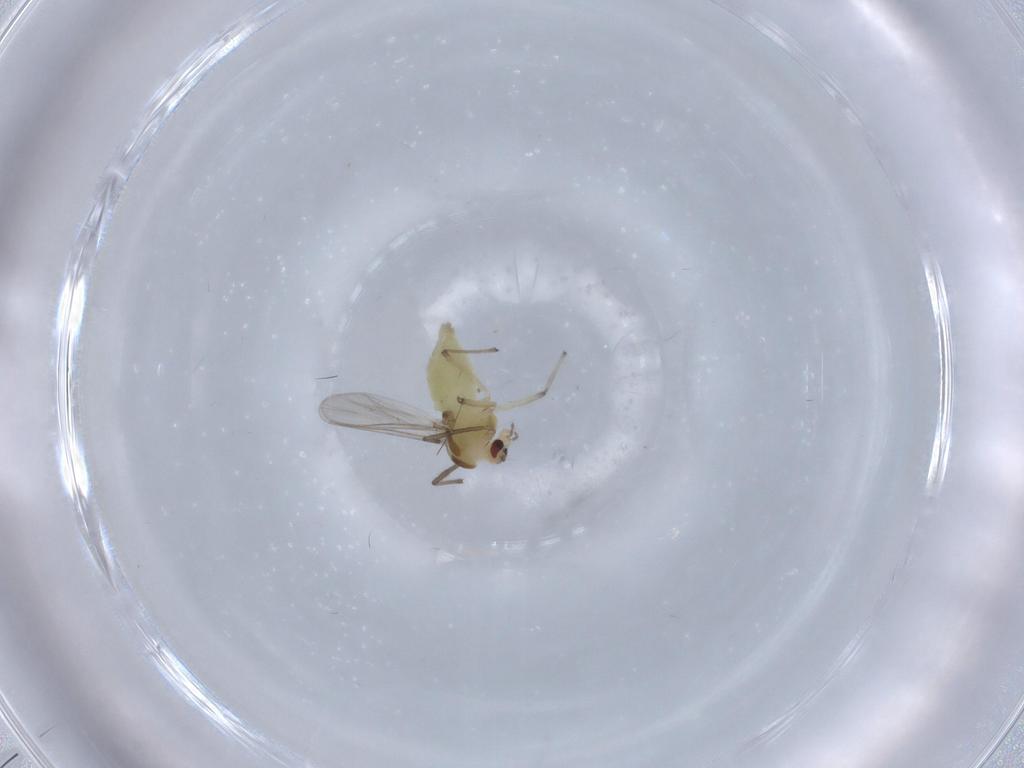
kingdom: Animalia
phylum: Arthropoda
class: Insecta
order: Diptera
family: Chironomidae
